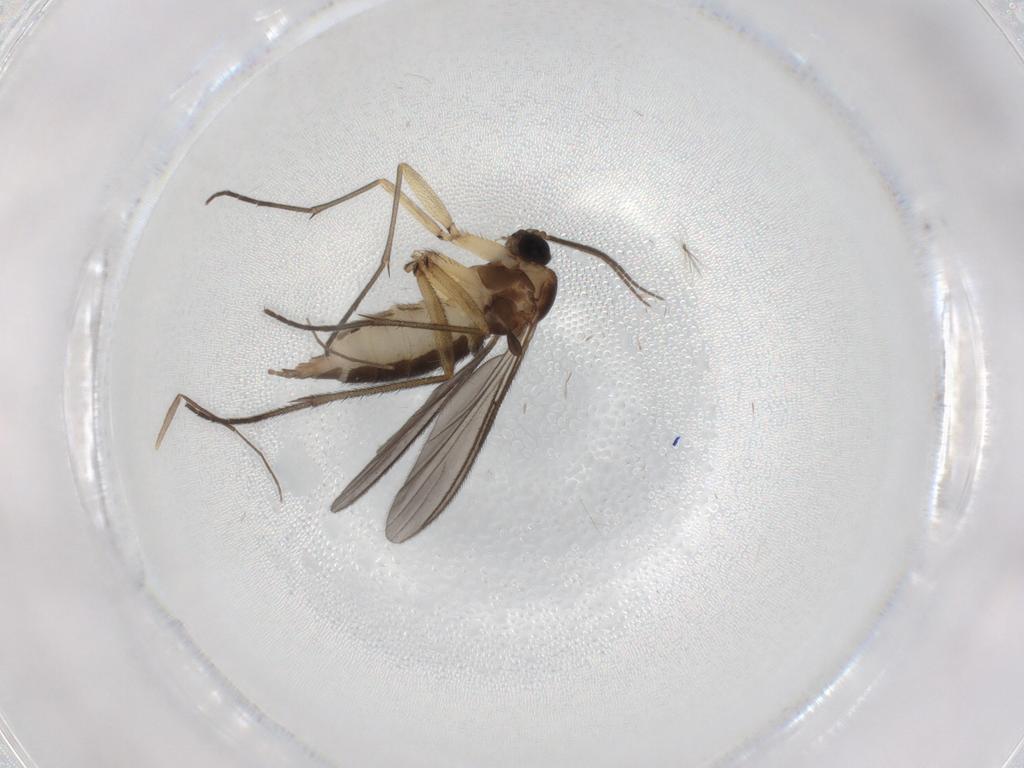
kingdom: Animalia
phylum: Arthropoda
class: Insecta
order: Diptera
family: Sciaridae
